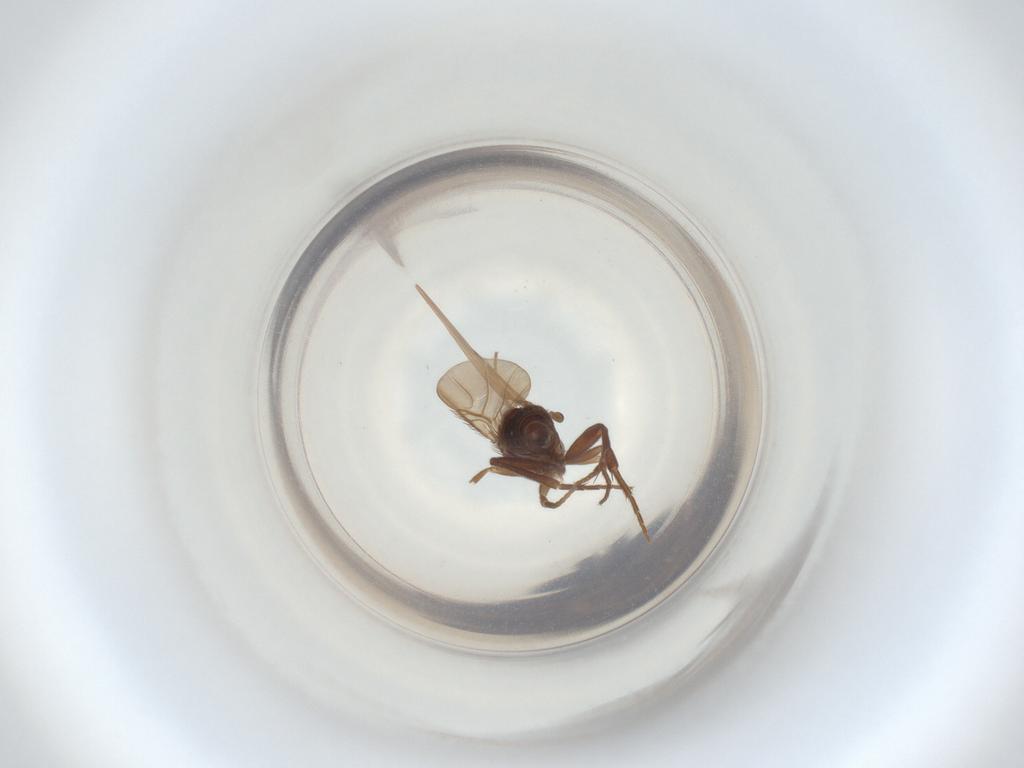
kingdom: Animalia
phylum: Arthropoda
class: Insecta
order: Diptera
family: Phoridae
